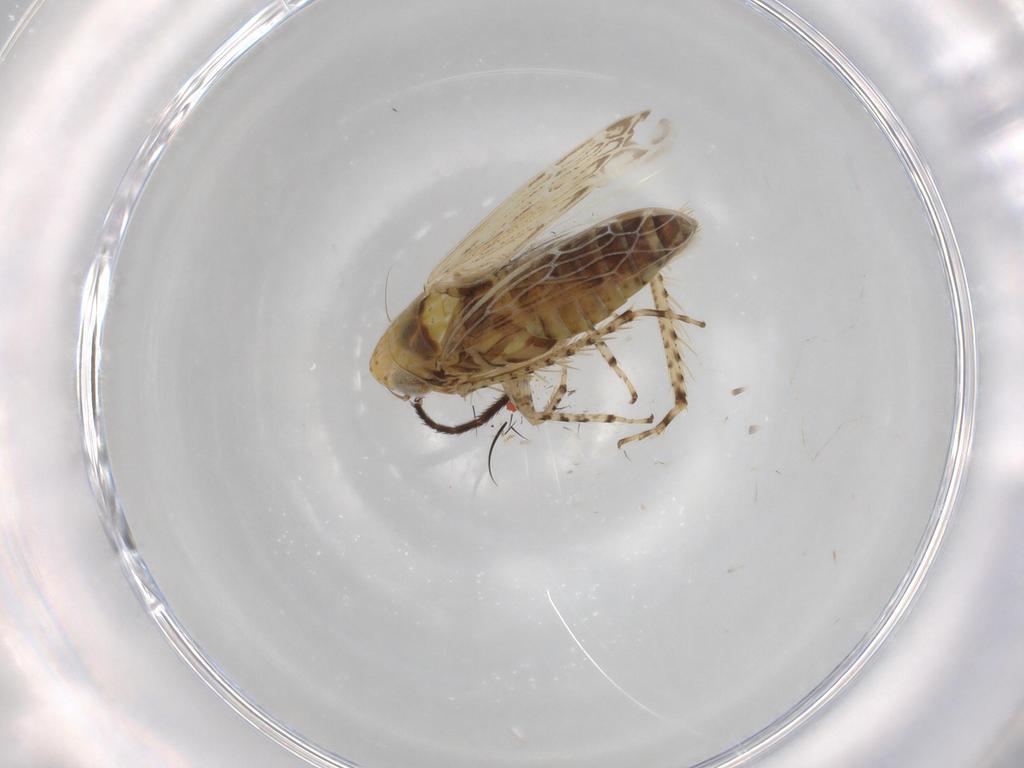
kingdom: Animalia
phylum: Arthropoda
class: Insecta
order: Hemiptera
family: Cicadellidae
